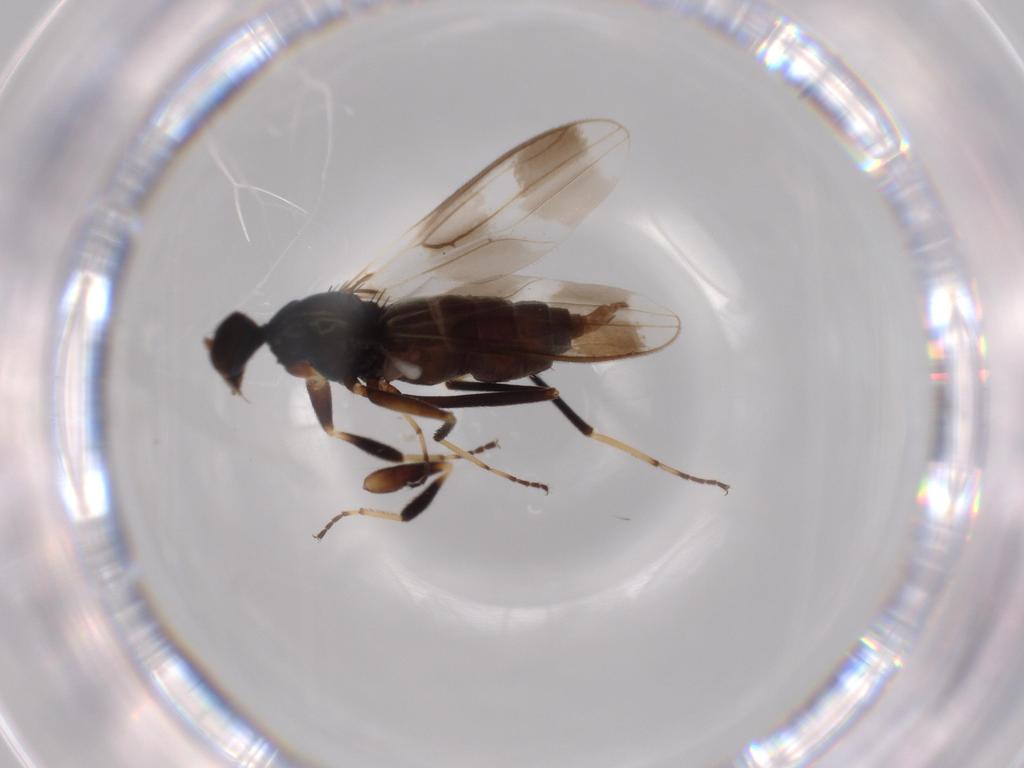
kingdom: Animalia
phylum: Arthropoda
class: Insecta
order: Diptera
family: Hybotidae
